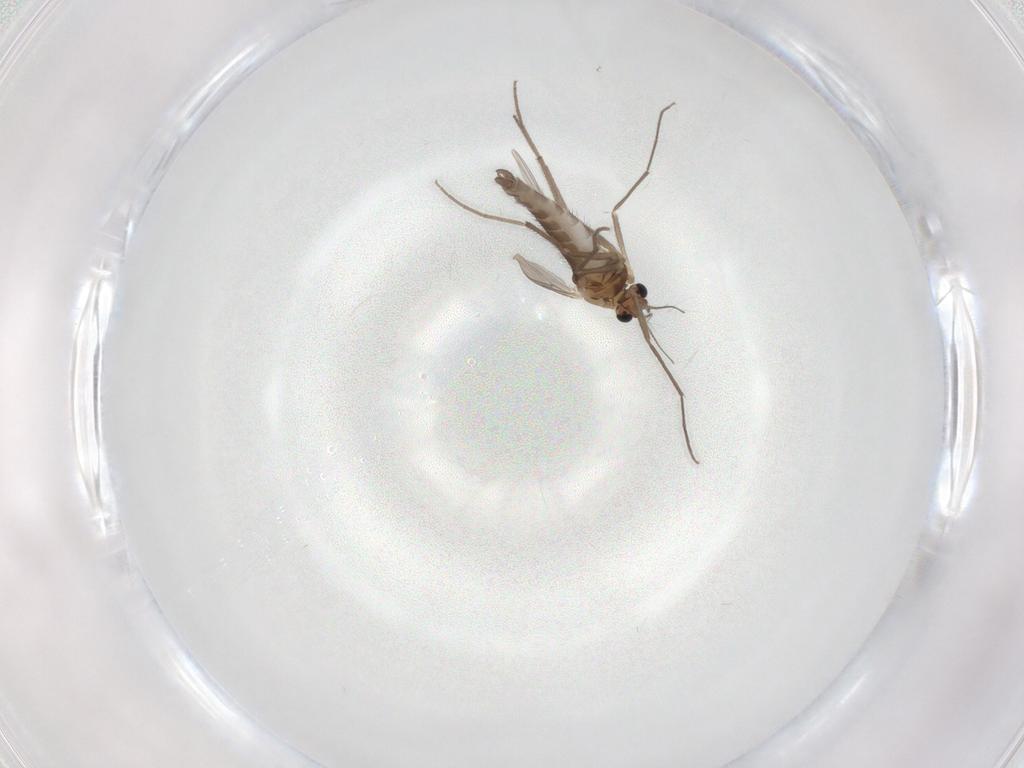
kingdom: Animalia
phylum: Arthropoda
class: Insecta
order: Diptera
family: Chironomidae
